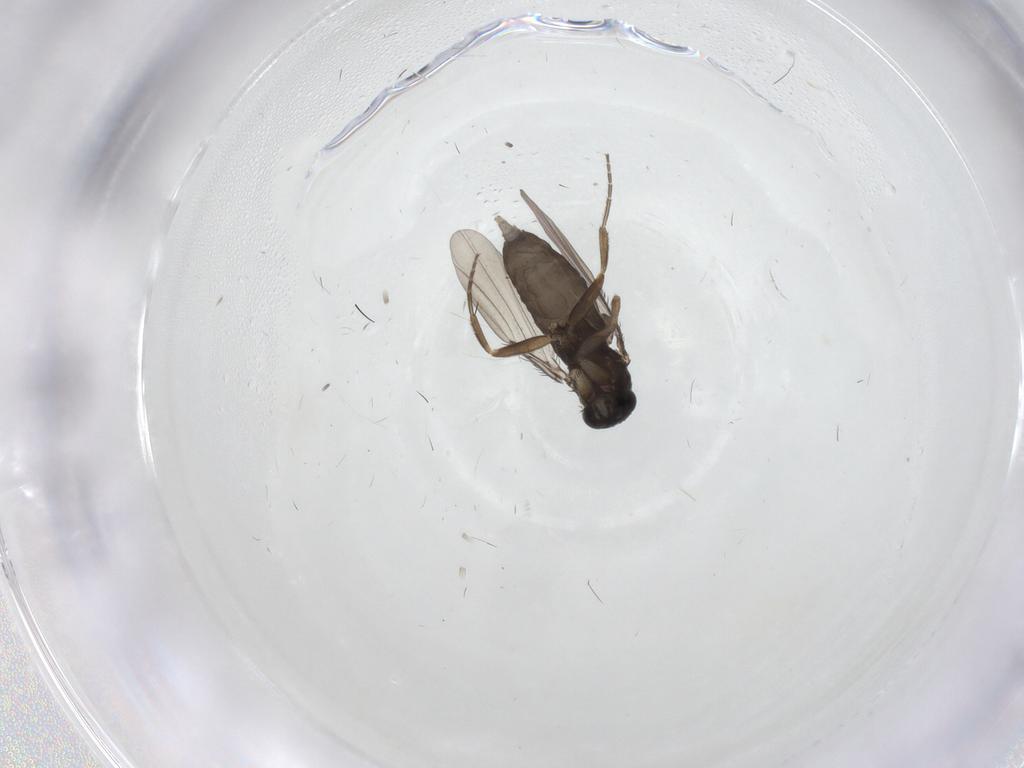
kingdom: Animalia
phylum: Arthropoda
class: Insecta
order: Diptera
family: Phoridae
